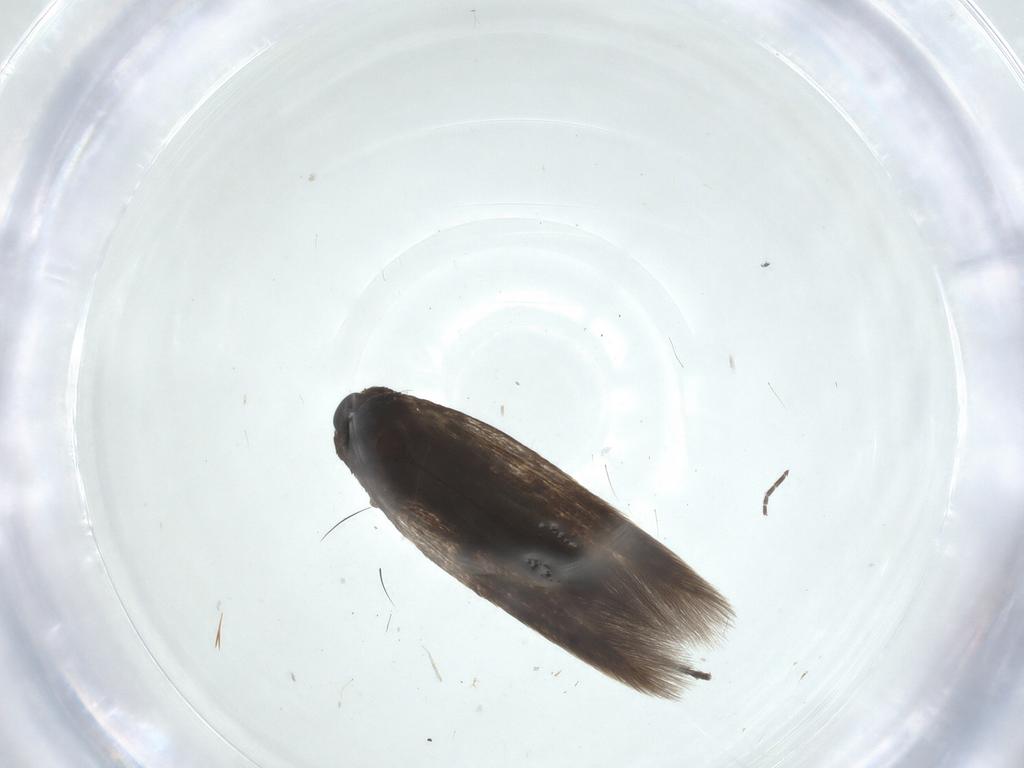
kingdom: Animalia
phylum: Arthropoda
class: Insecta
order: Lepidoptera
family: Scythrididae
